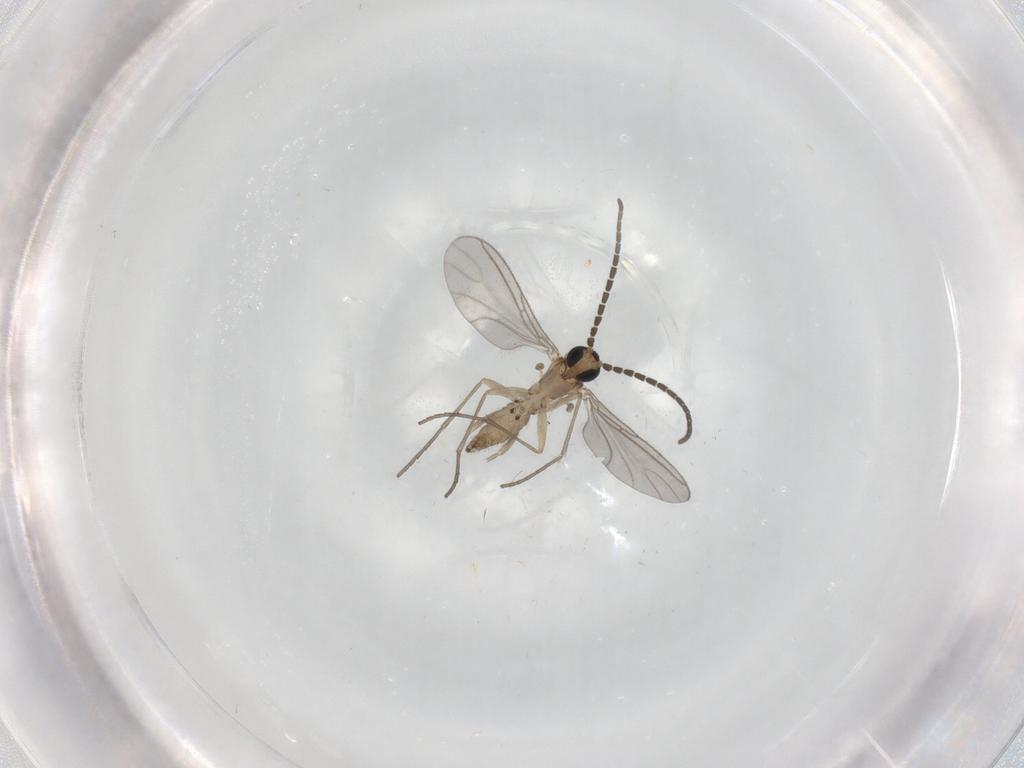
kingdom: Animalia
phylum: Arthropoda
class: Insecta
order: Diptera
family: Sciaridae
